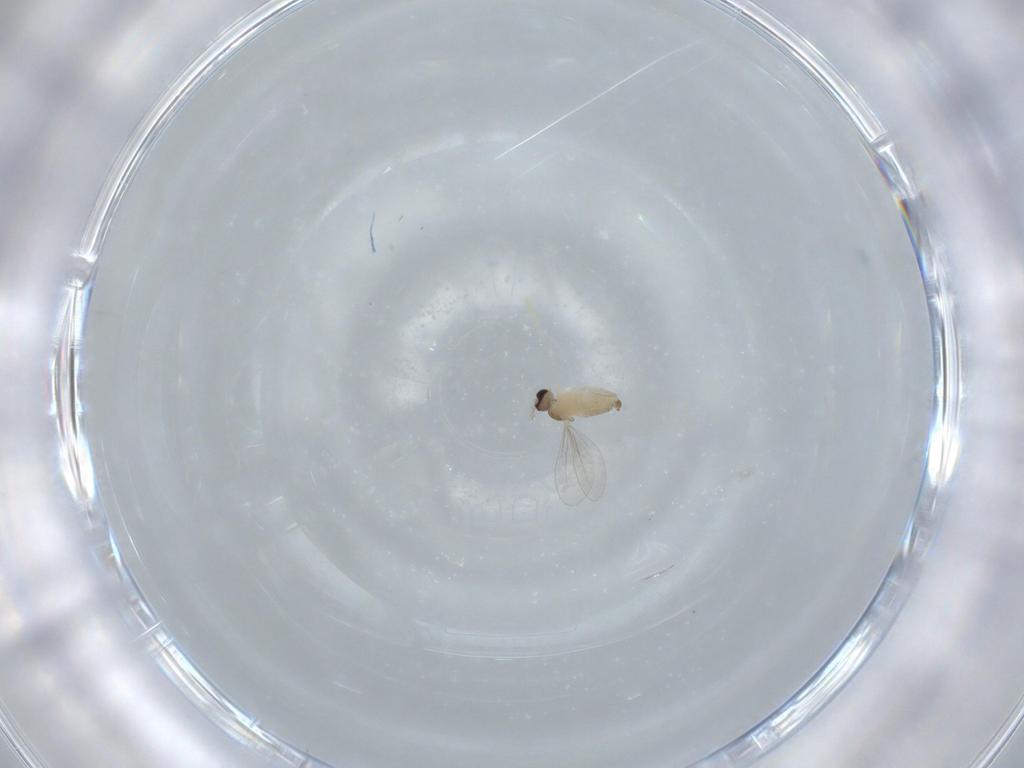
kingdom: Animalia
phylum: Arthropoda
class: Insecta
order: Diptera
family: Cecidomyiidae
